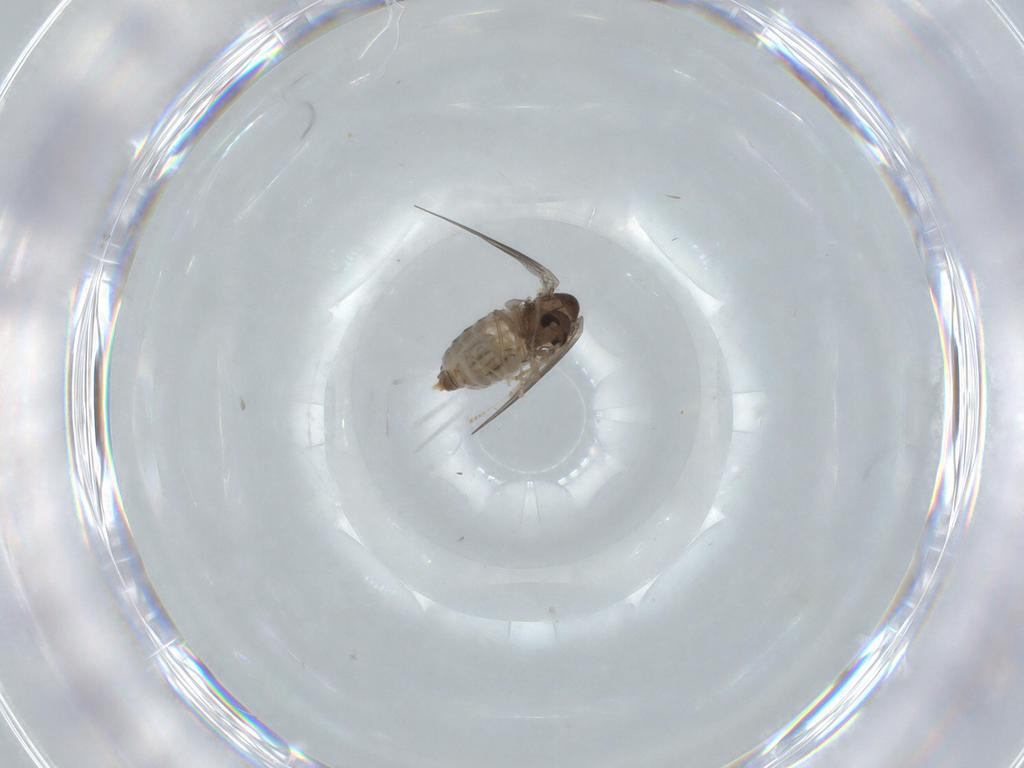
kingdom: Animalia
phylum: Arthropoda
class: Insecta
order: Diptera
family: Psychodidae
